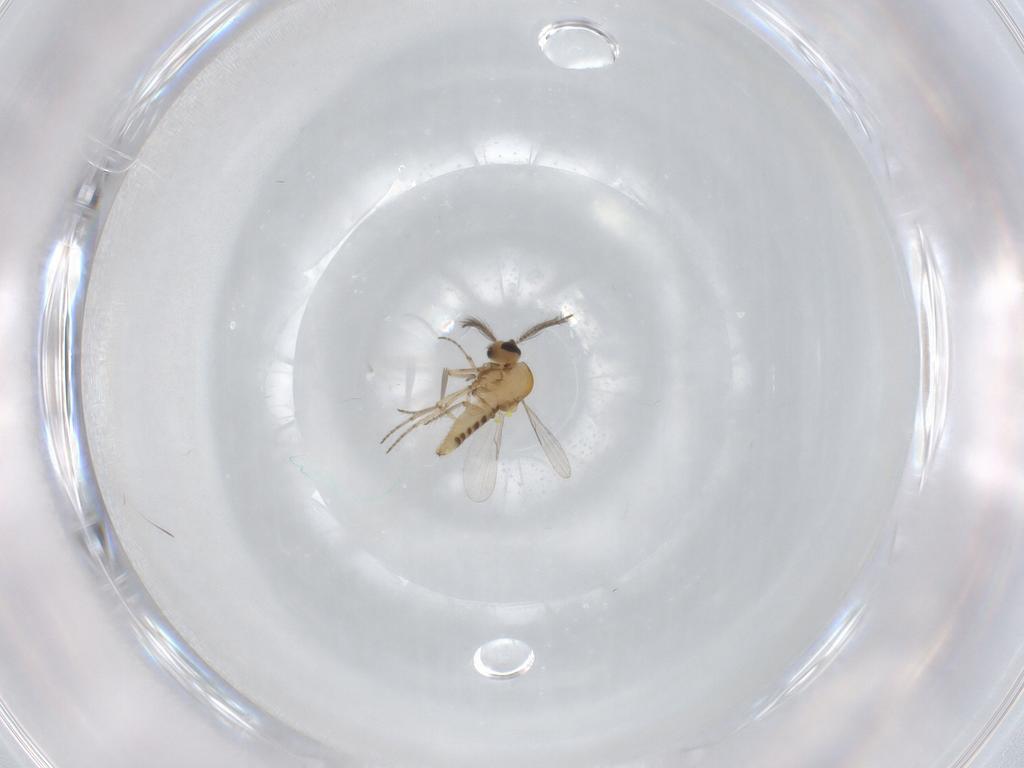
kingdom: Animalia
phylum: Arthropoda
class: Insecta
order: Diptera
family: Ceratopogonidae
